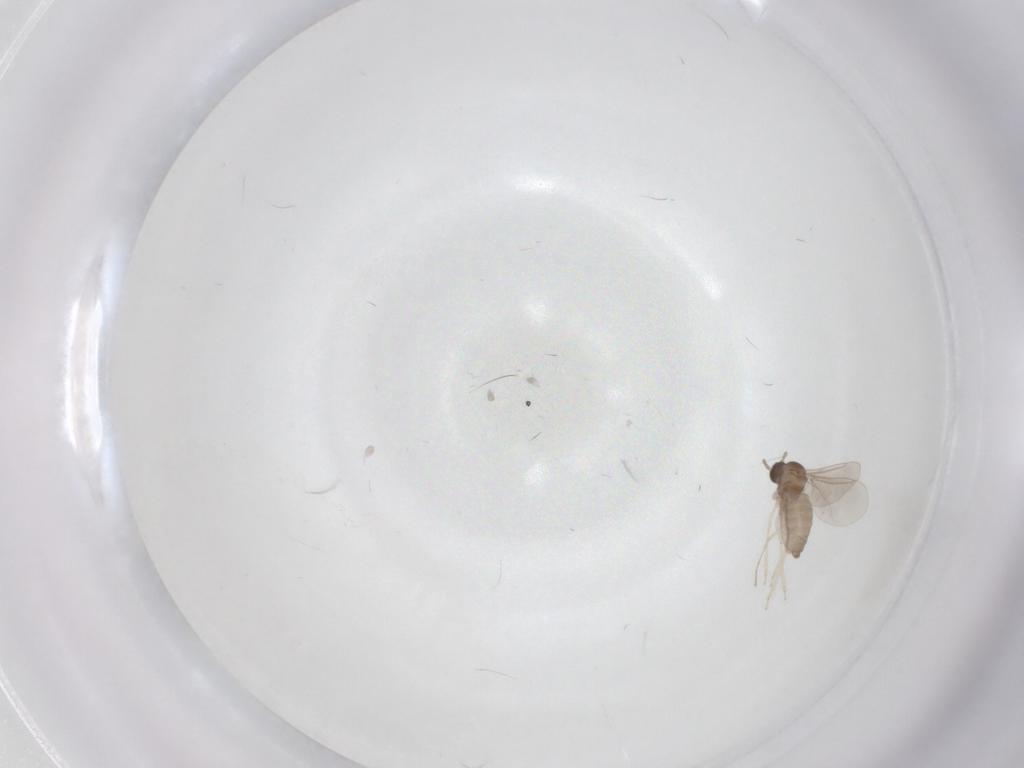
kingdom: Animalia
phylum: Arthropoda
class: Insecta
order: Diptera
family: Cecidomyiidae
